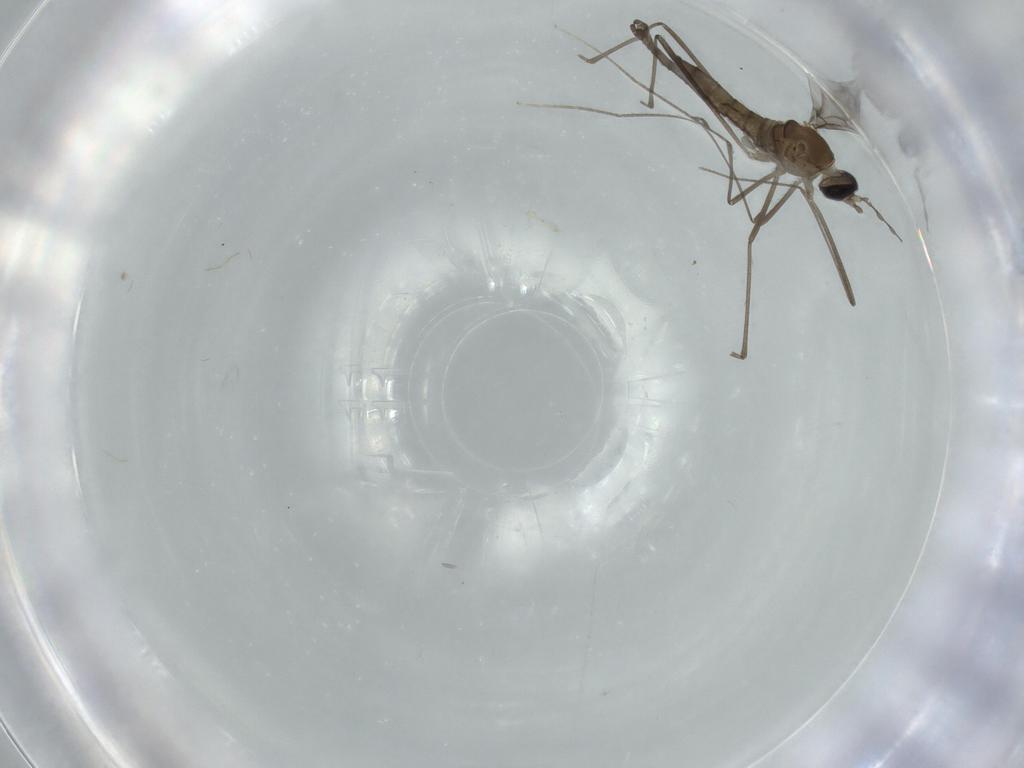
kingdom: Animalia
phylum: Arthropoda
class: Insecta
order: Diptera
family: Cecidomyiidae
